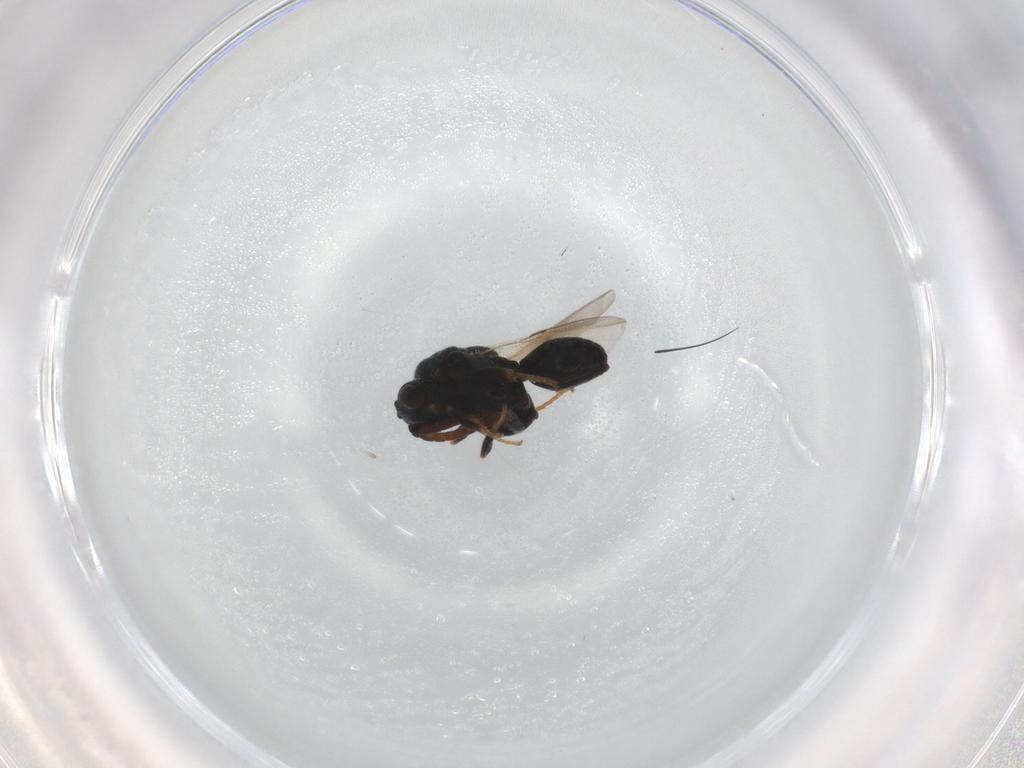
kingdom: Animalia
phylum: Arthropoda
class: Insecta
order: Hymenoptera
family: Chalcididae
